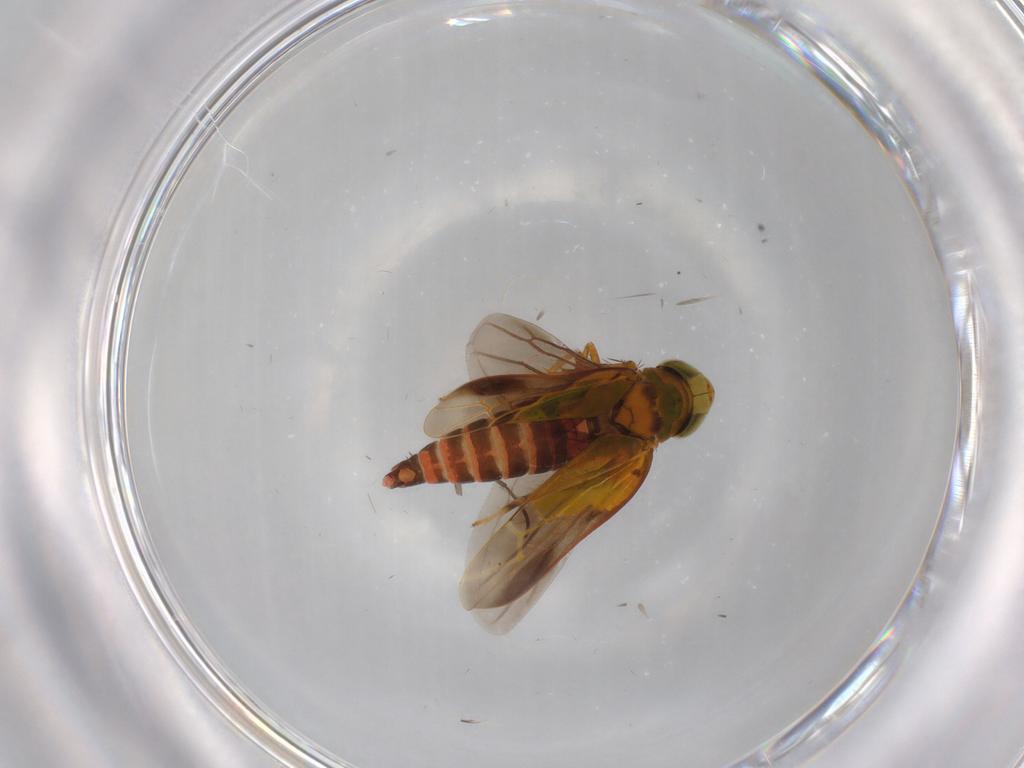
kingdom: Animalia
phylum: Arthropoda
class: Insecta
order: Hemiptera
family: Cicadellidae
